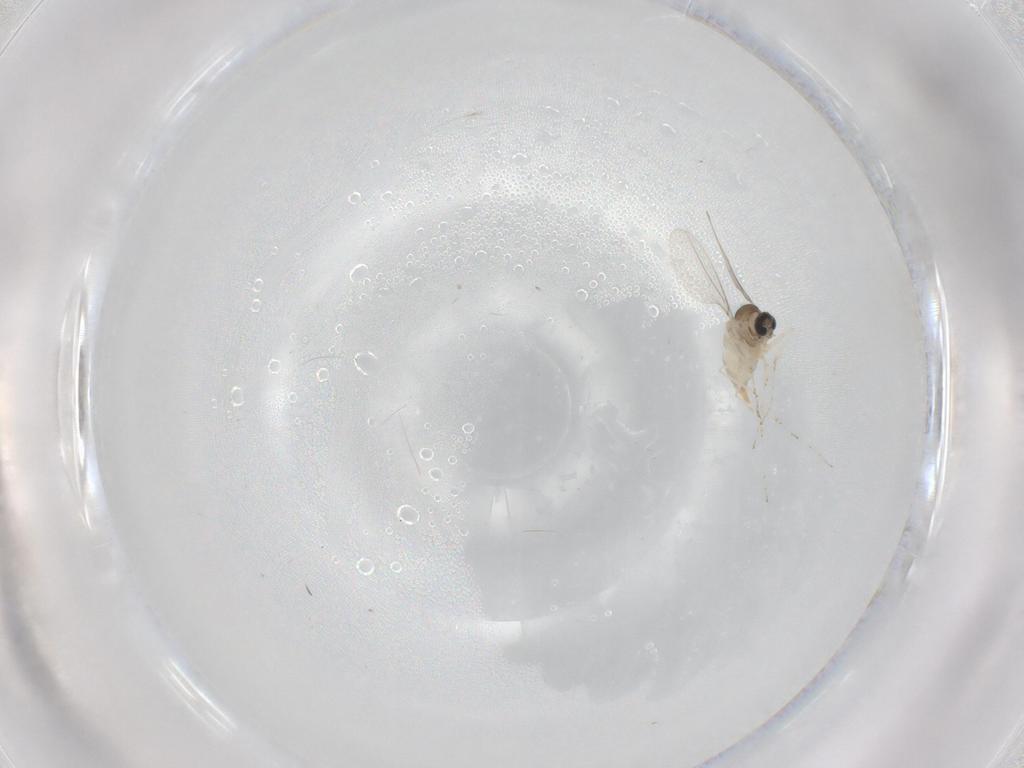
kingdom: Animalia
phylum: Arthropoda
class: Insecta
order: Diptera
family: Cecidomyiidae
